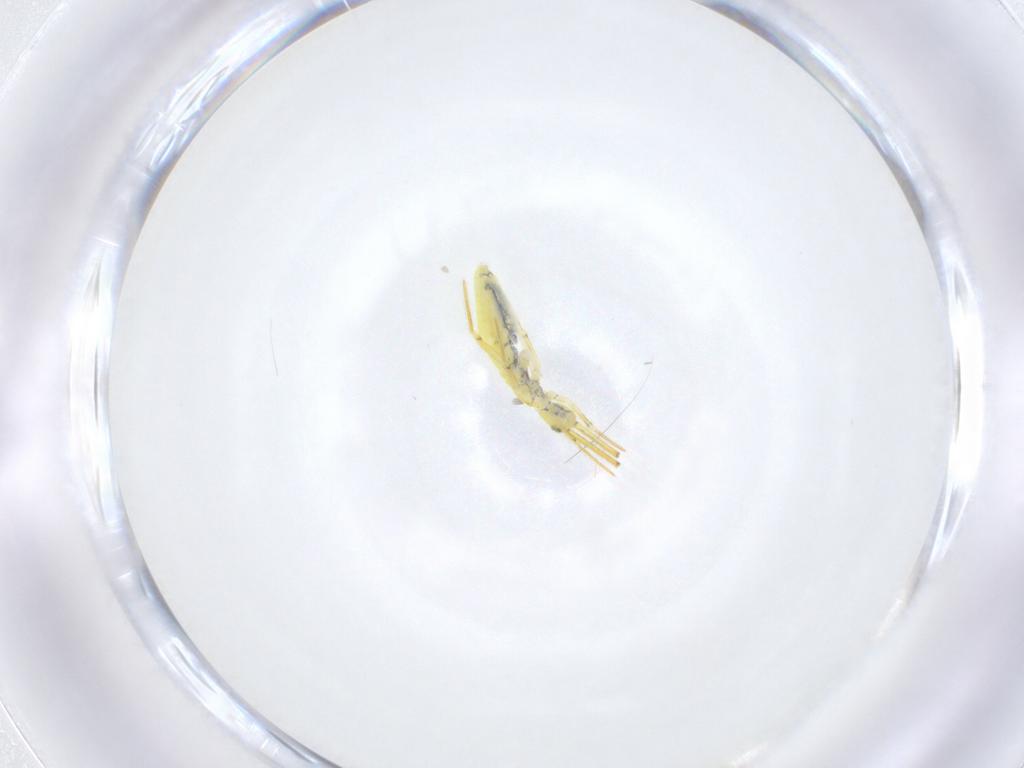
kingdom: Animalia
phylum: Arthropoda
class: Collembola
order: Entomobryomorpha
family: Entomobryidae
